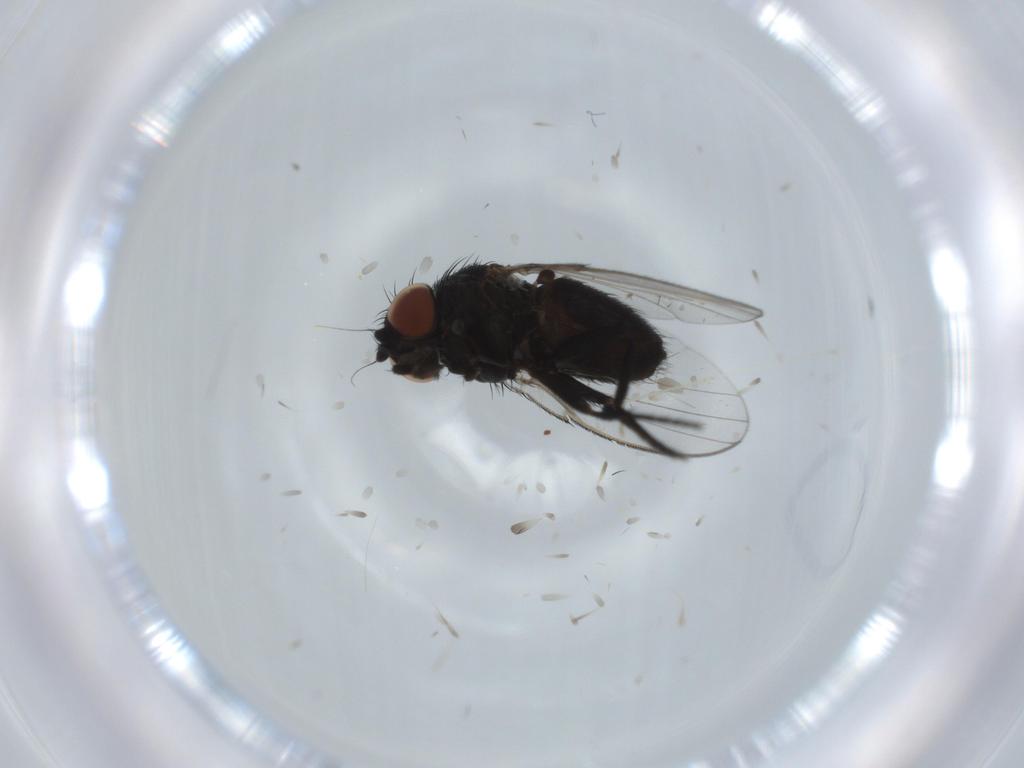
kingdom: Animalia
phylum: Arthropoda
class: Insecta
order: Diptera
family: Milichiidae
